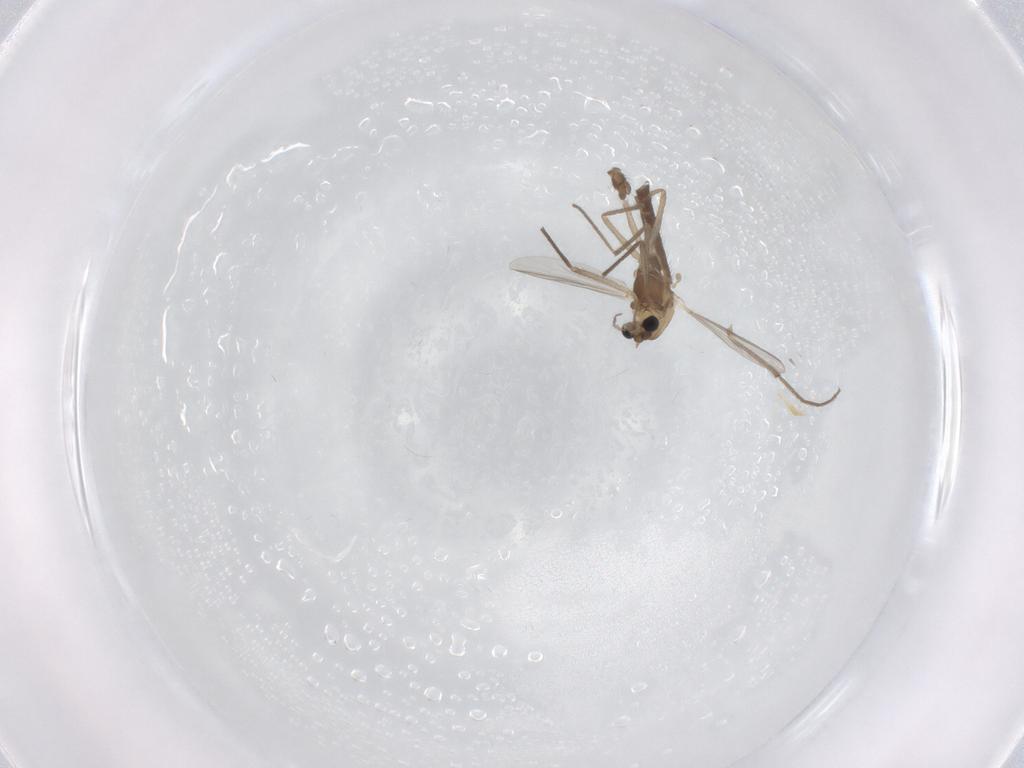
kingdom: Animalia
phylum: Arthropoda
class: Insecta
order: Diptera
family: Chironomidae
